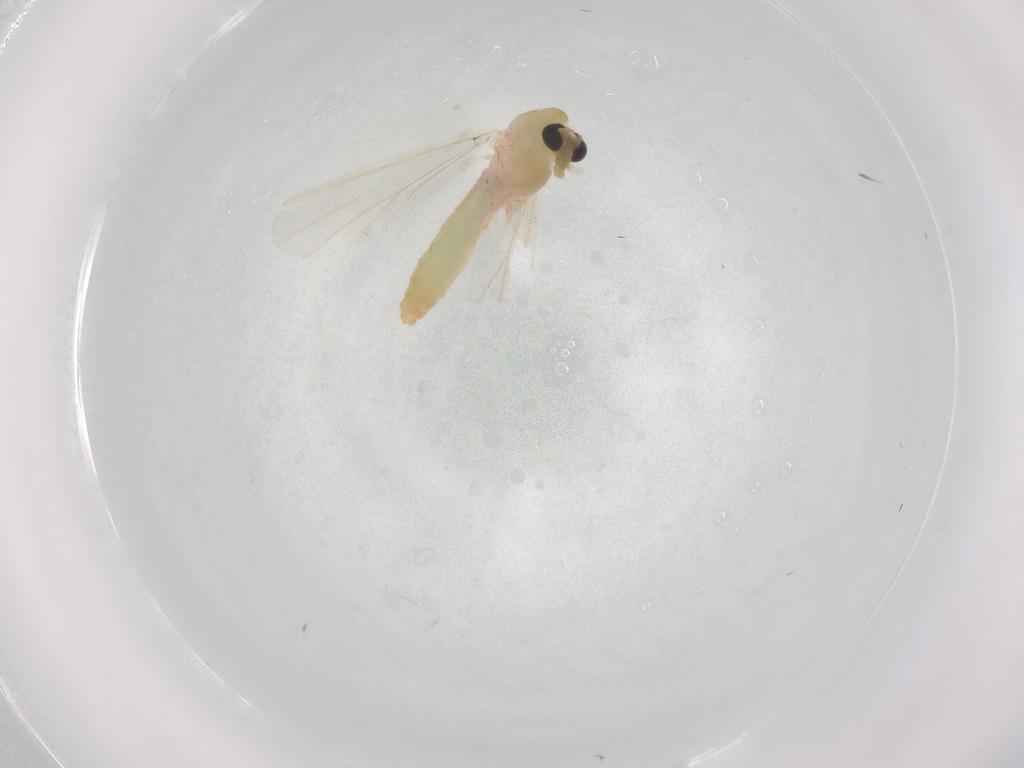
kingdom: Animalia
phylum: Arthropoda
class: Insecta
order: Diptera
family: Chironomidae
